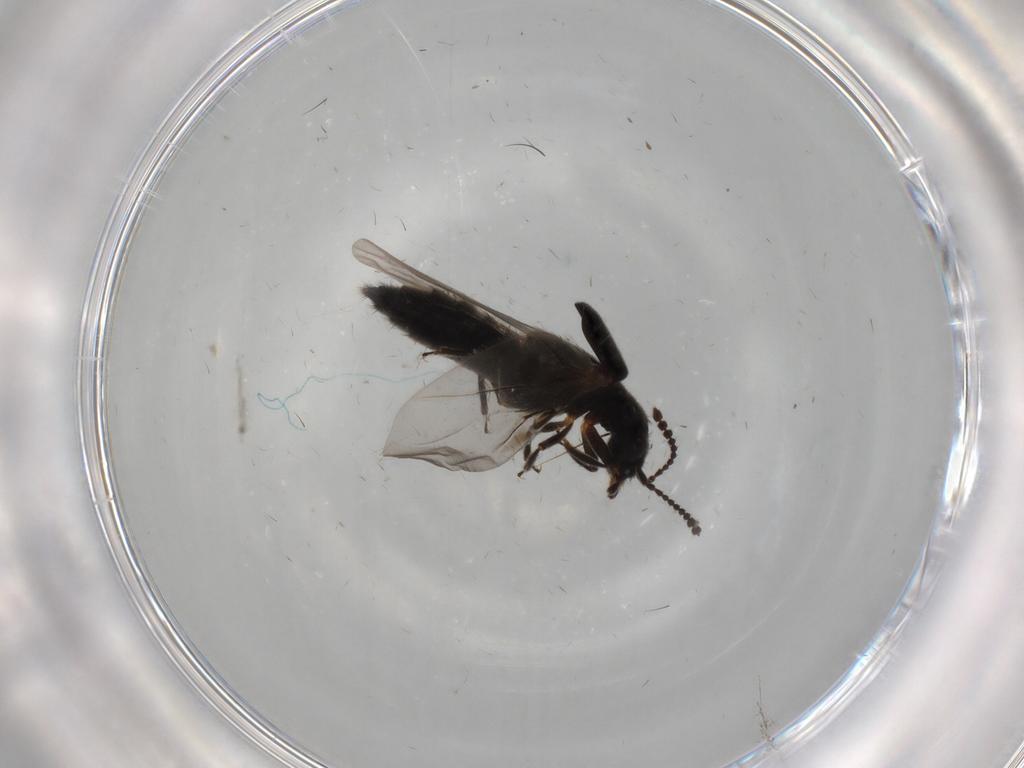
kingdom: Animalia
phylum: Arthropoda
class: Insecta
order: Coleoptera
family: Staphylinidae
